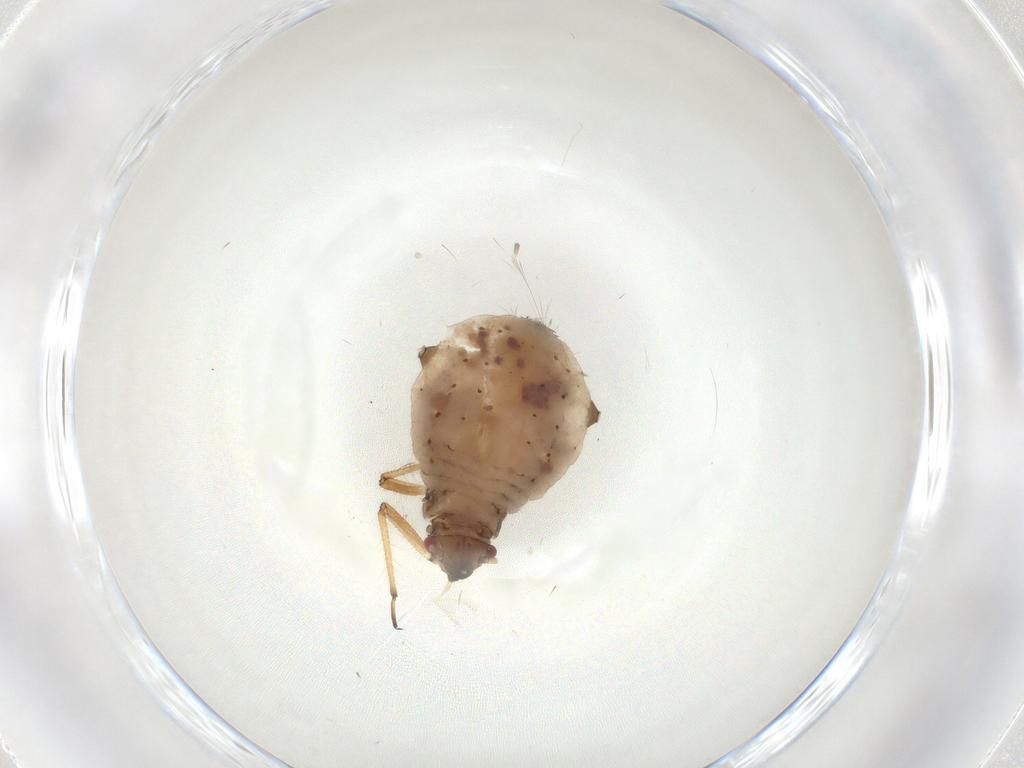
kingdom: Animalia
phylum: Arthropoda
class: Insecta
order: Hemiptera
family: Aphididae
